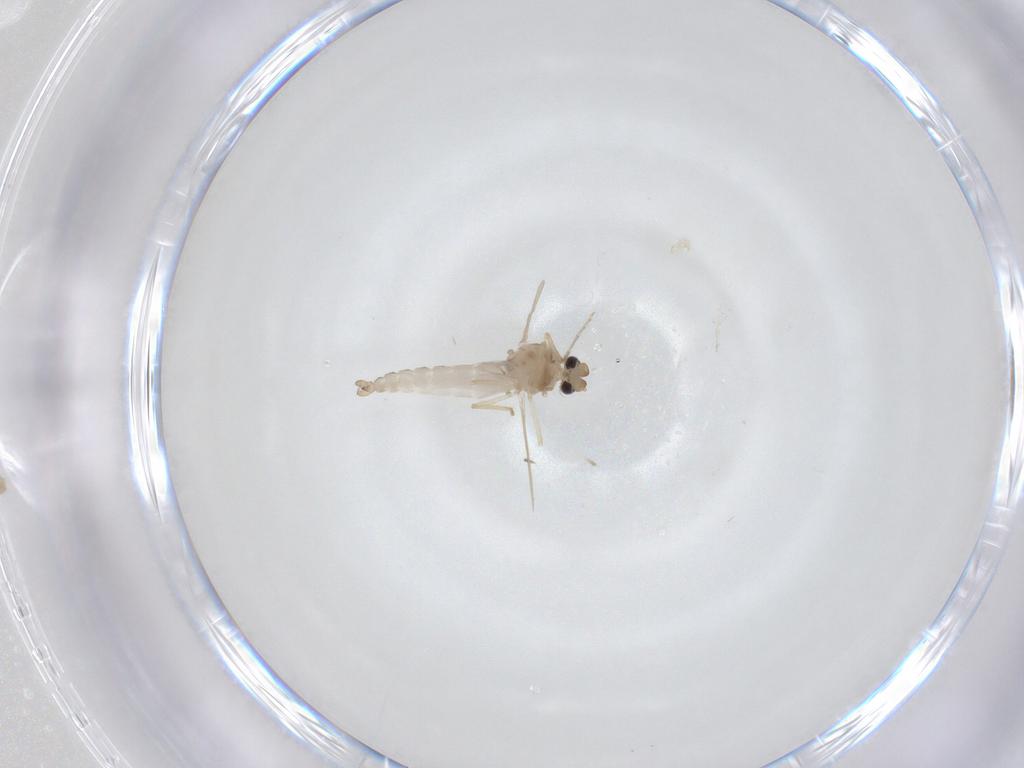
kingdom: Animalia
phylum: Arthropoda
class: Insecta
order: Diptera
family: Ceratopogonidae
